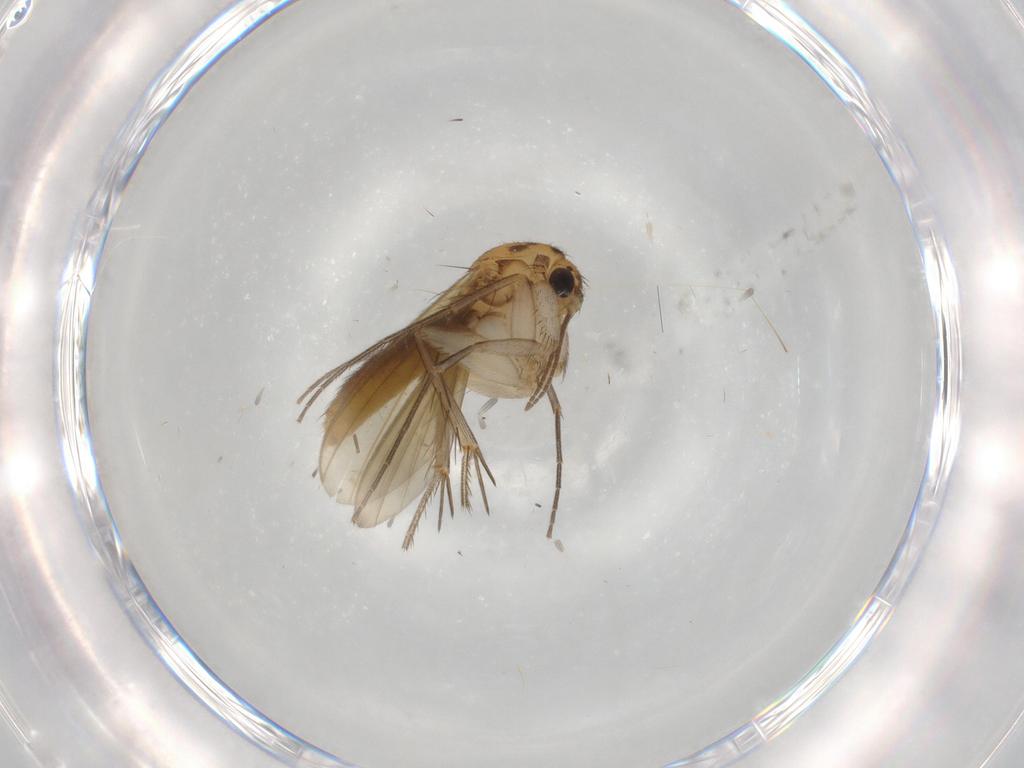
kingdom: Animalia
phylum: Arthropoda
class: Insecta
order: Diptera
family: Mycetophilidae
